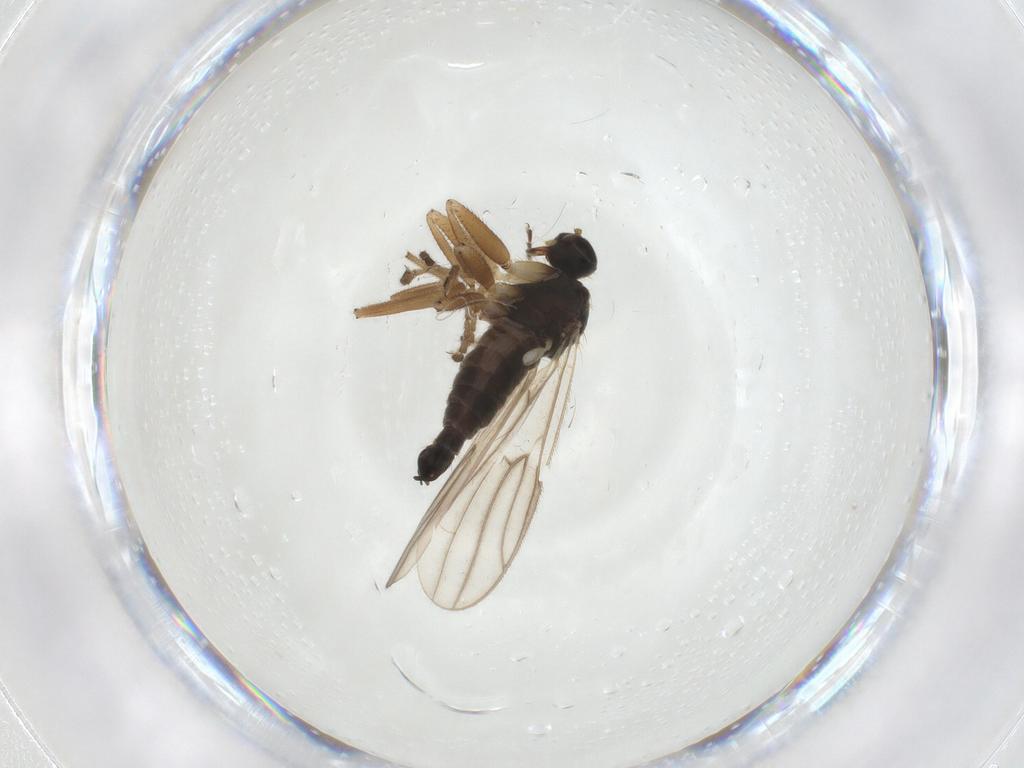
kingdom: Animalia
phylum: Arthropoda
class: Insecta
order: Diptera
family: Hybotidae
